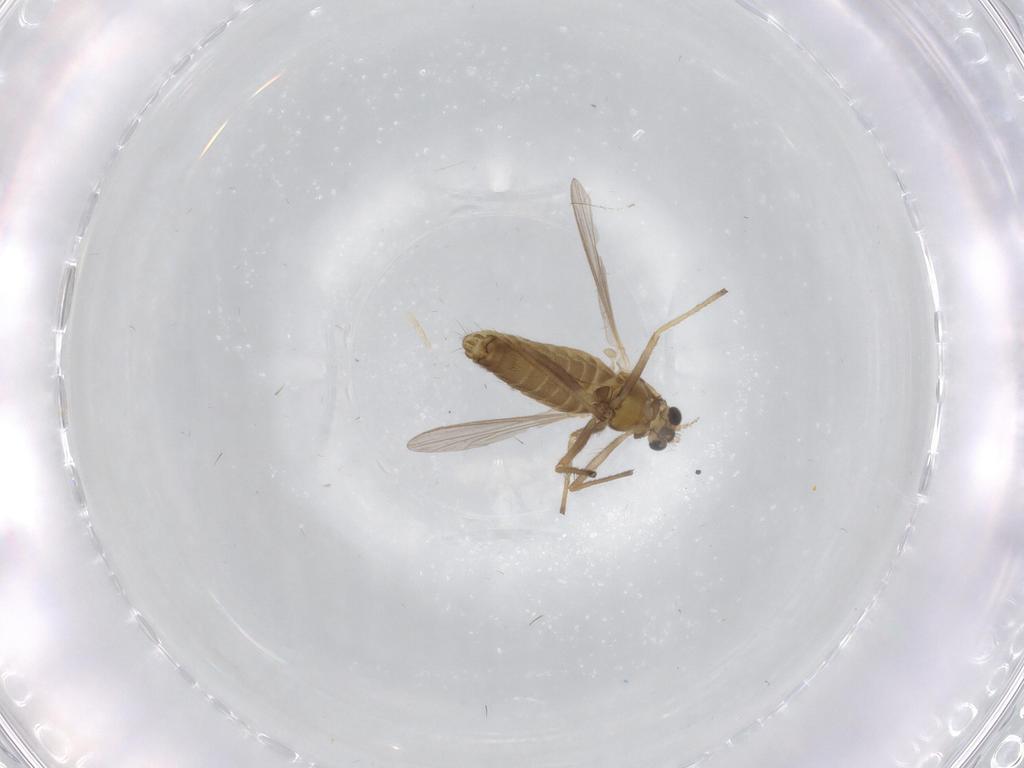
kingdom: Animalia
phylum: Arthropoda
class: Insecta
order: Diptera
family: Chironomidae
